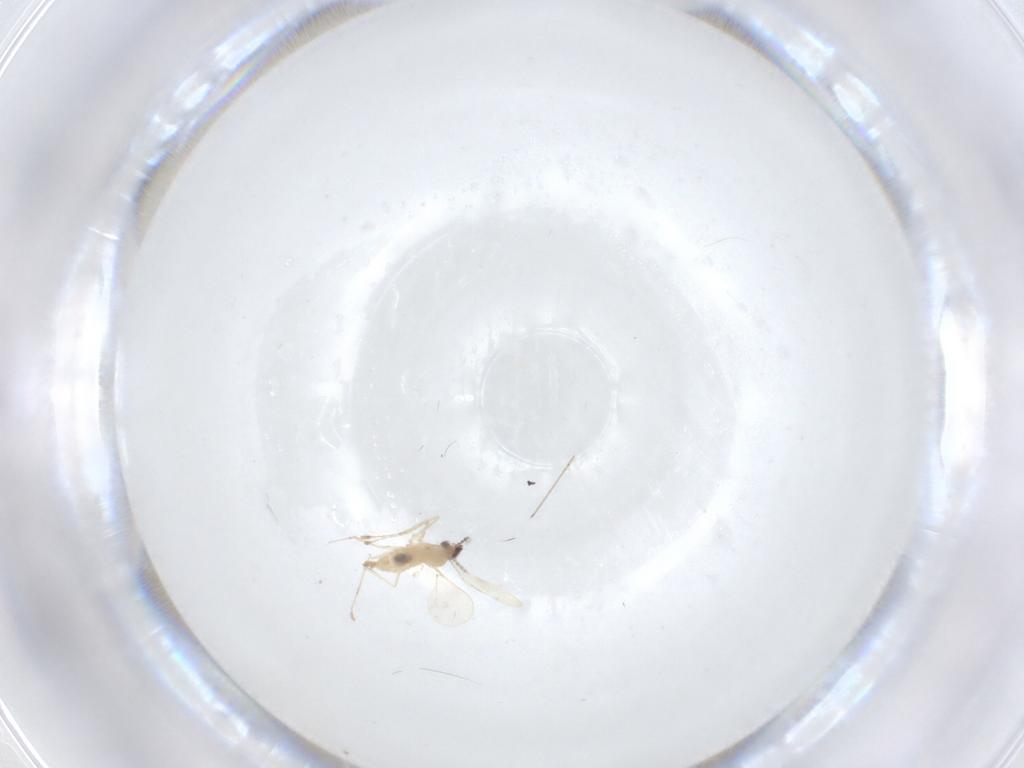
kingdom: Animalia
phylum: Arthropoda
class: Insecta
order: Diptera
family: Cecidomyiidae
